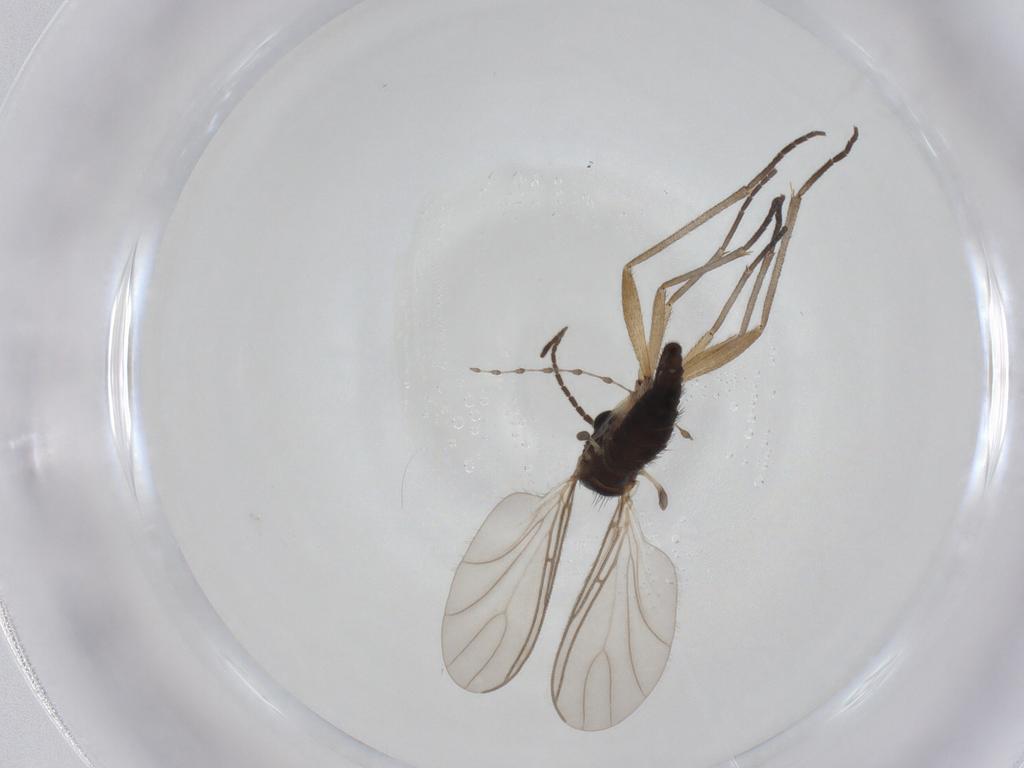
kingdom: Animalia
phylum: Arthropoda
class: Insecta
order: Diptera
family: Sciaridae
